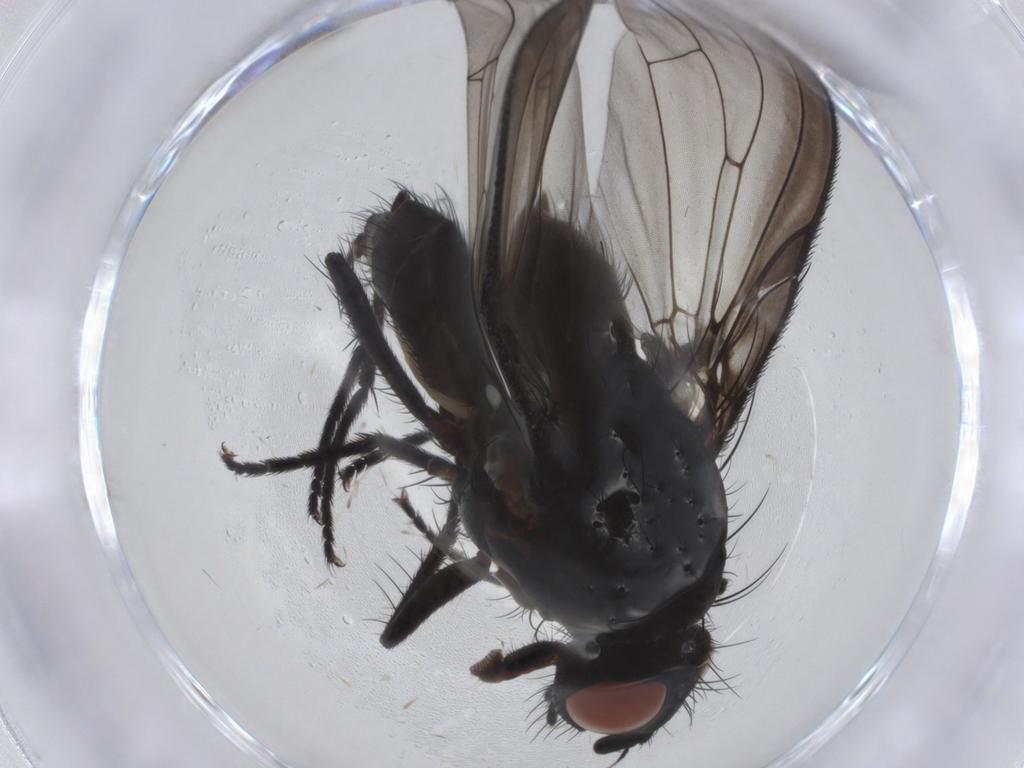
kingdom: Animalia
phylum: Arthropoda
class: Insecta
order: Diptera
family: Anthomyiidae
